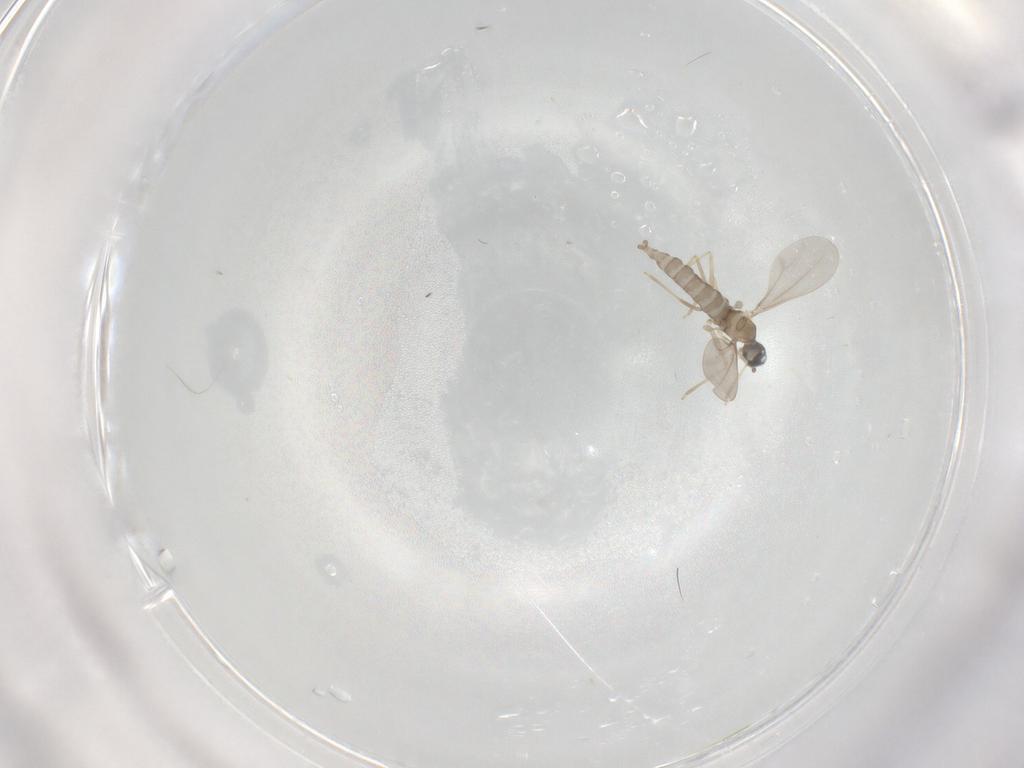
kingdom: Animalia
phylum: Arthropoda
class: Insecta
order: Diptera
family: Cecidomyiidae
